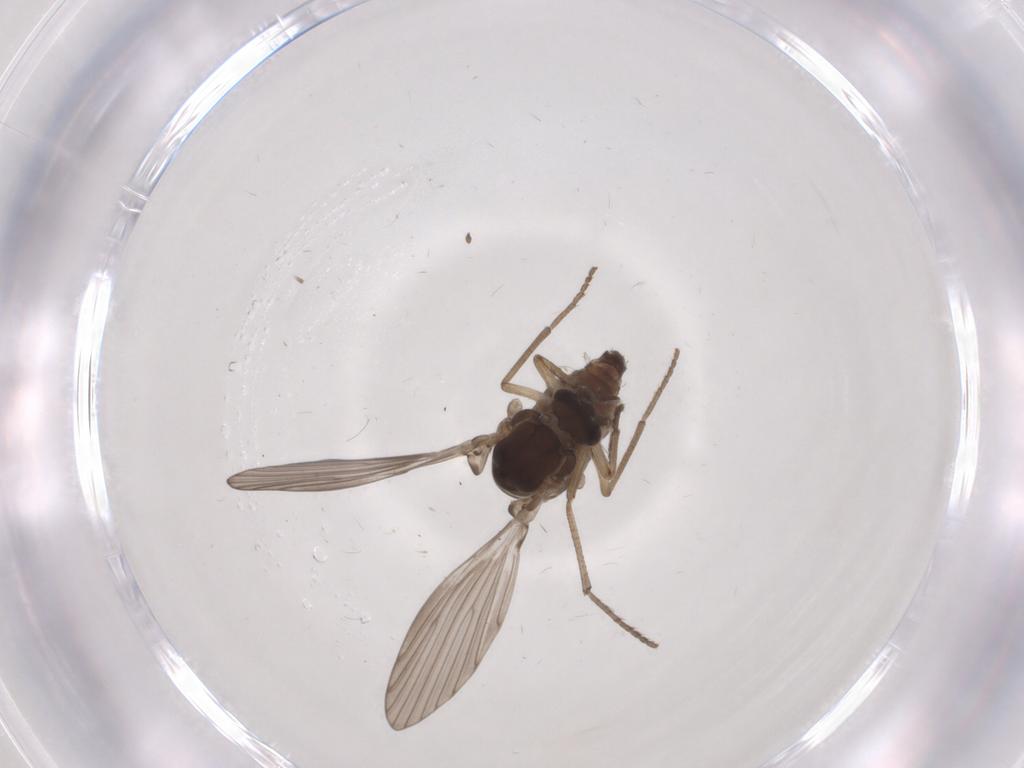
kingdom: Animalia
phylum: Arthropoda
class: Insecta
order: Diptera
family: Psychodidae
